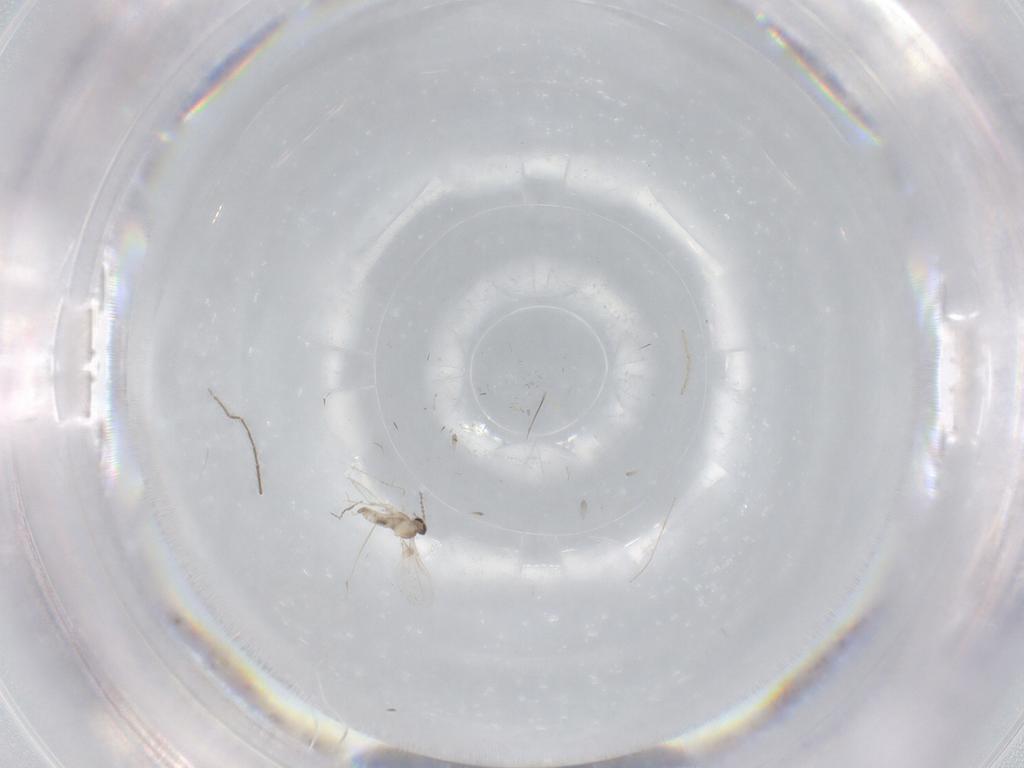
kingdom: Animalia
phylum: Arthropoda
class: Insecta
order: Diptera
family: Cecidomyiidae
